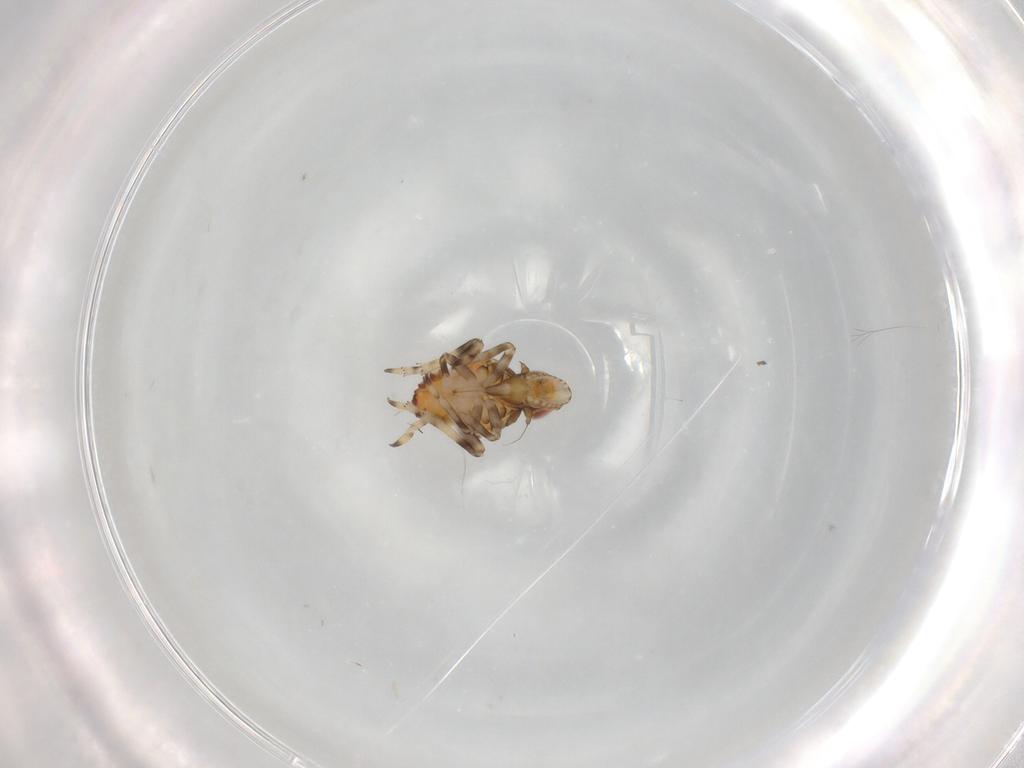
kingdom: Animalia
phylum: Arthropoda
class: Insecta
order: Hemiptera
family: Tropiduchidae
